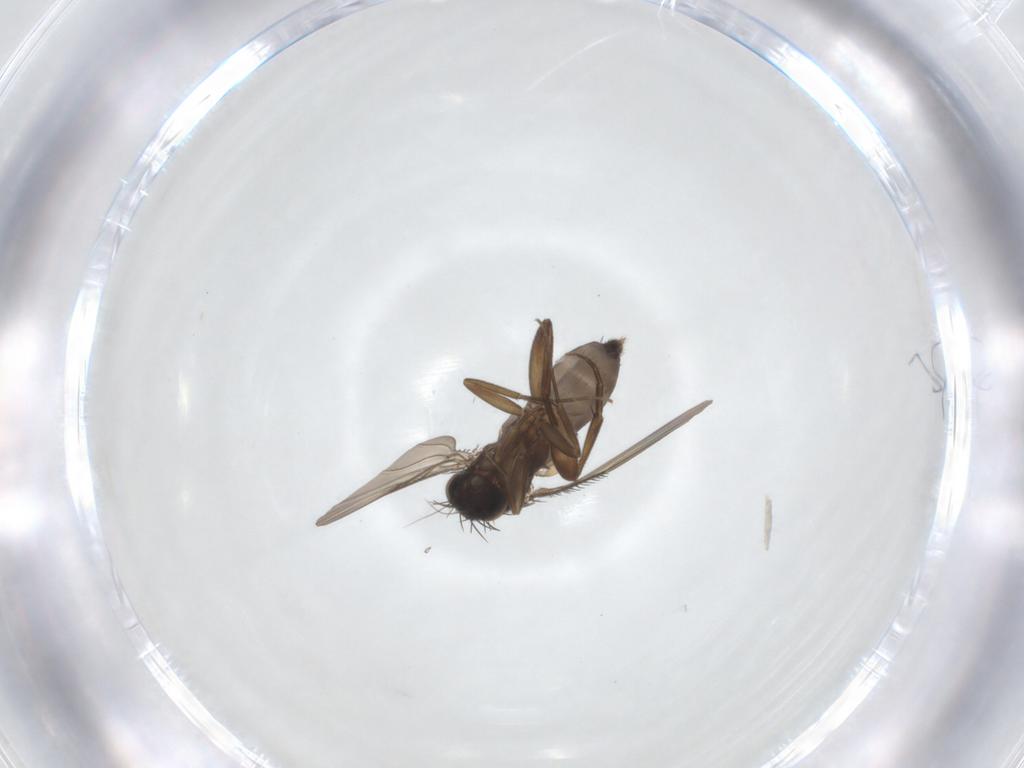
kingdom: Animalia
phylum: Arthropoda
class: Insecta
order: Diptera
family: Phoridae
